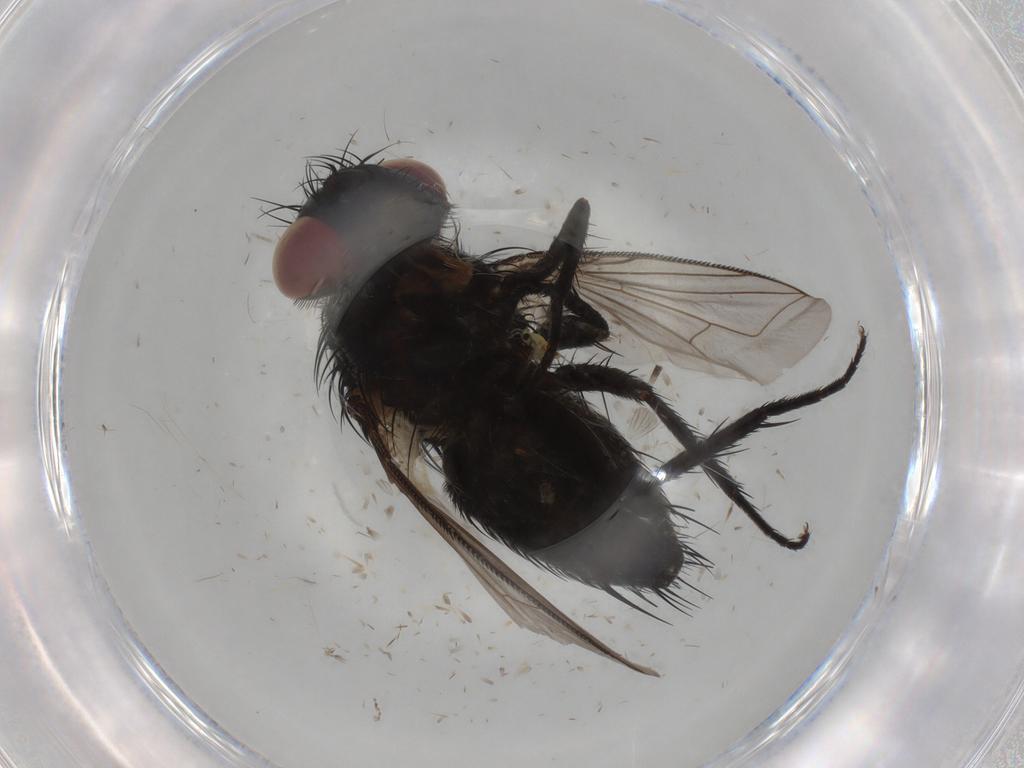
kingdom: Animalia
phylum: Arthropoda
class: Insecta
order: Diptera
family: Tachinidae
